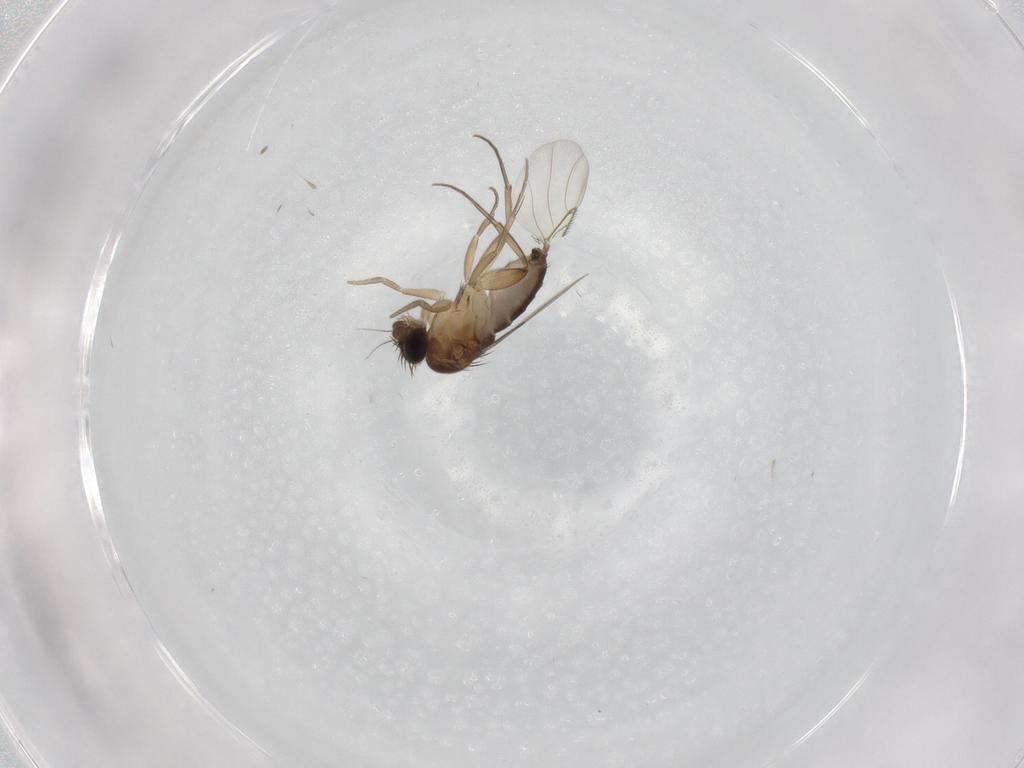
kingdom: Animalia
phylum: Arthropoda
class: Insecta
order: Diptera
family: Phoridae
